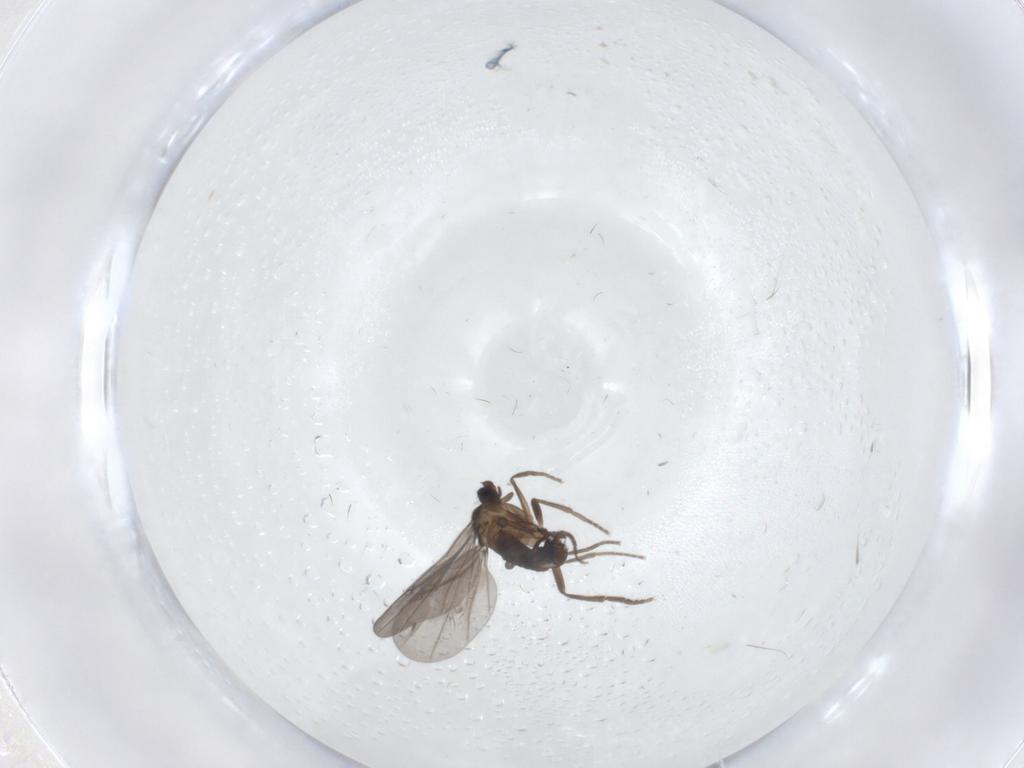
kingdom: Animalia
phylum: Arthropoda
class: Insecta
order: Diptera
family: Phoridae
